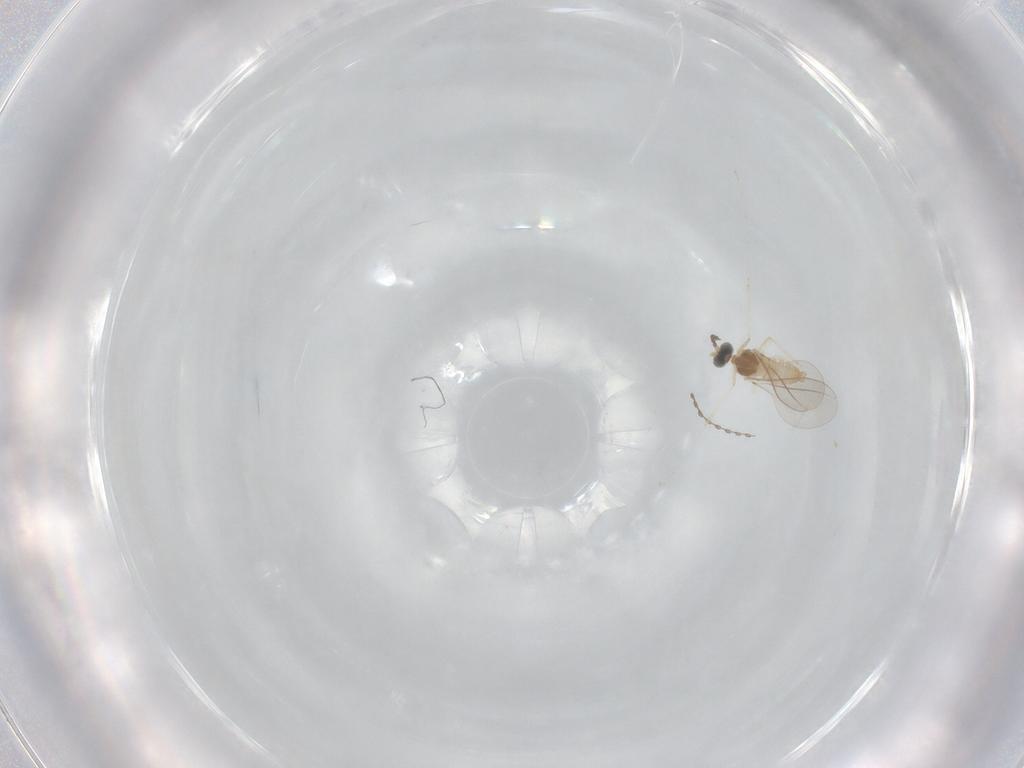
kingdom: Animalia
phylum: Arthropoda
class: Insecta
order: Diptera
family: Cecidomyiidae
